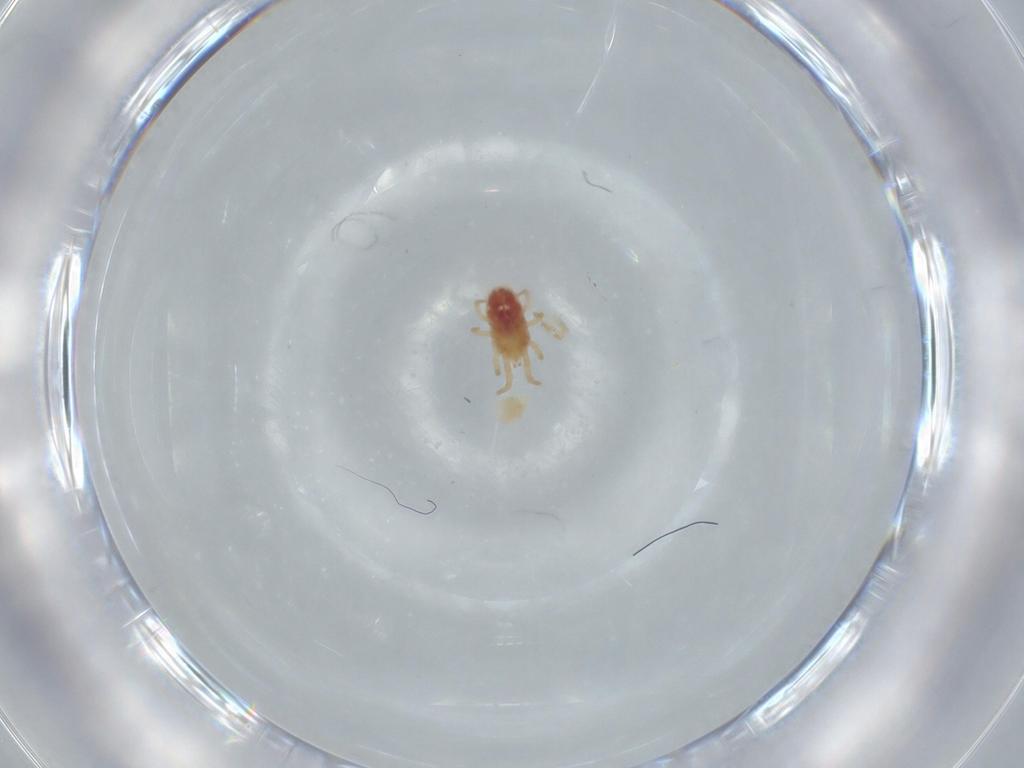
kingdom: Animalia
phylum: Arthropoda
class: Arachnida
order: Mesostigmata
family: Dermanyssidae
